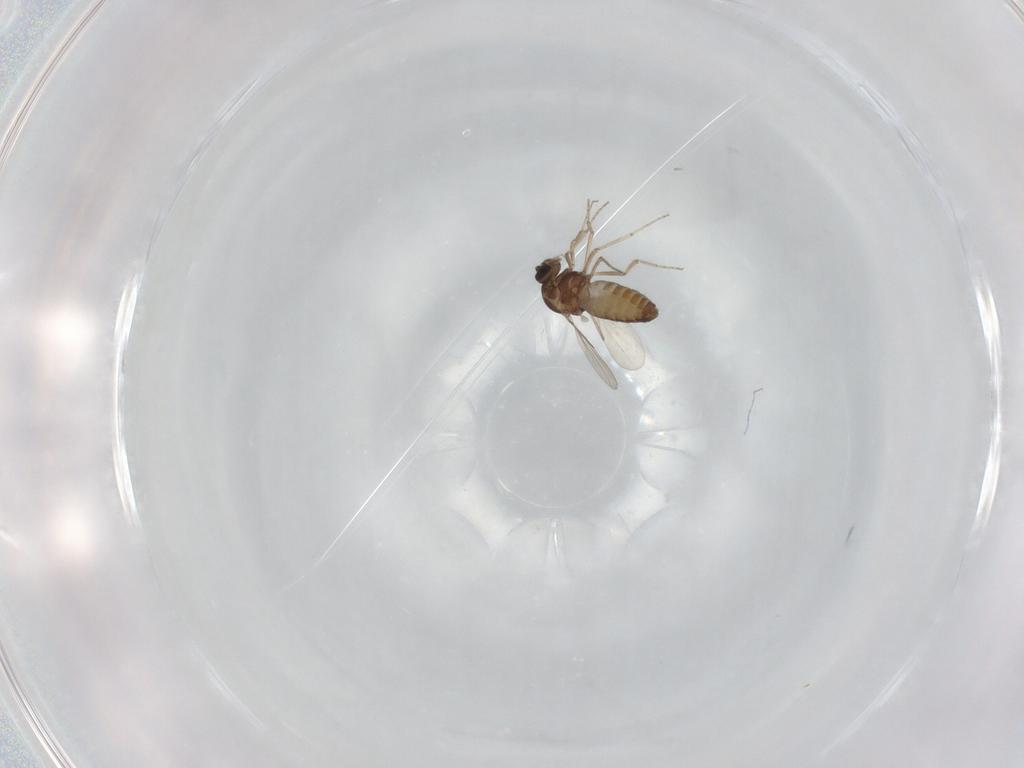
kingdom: Animalia
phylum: Arthropoda
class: Insecta
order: Diptera
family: Ceratopogonidae
